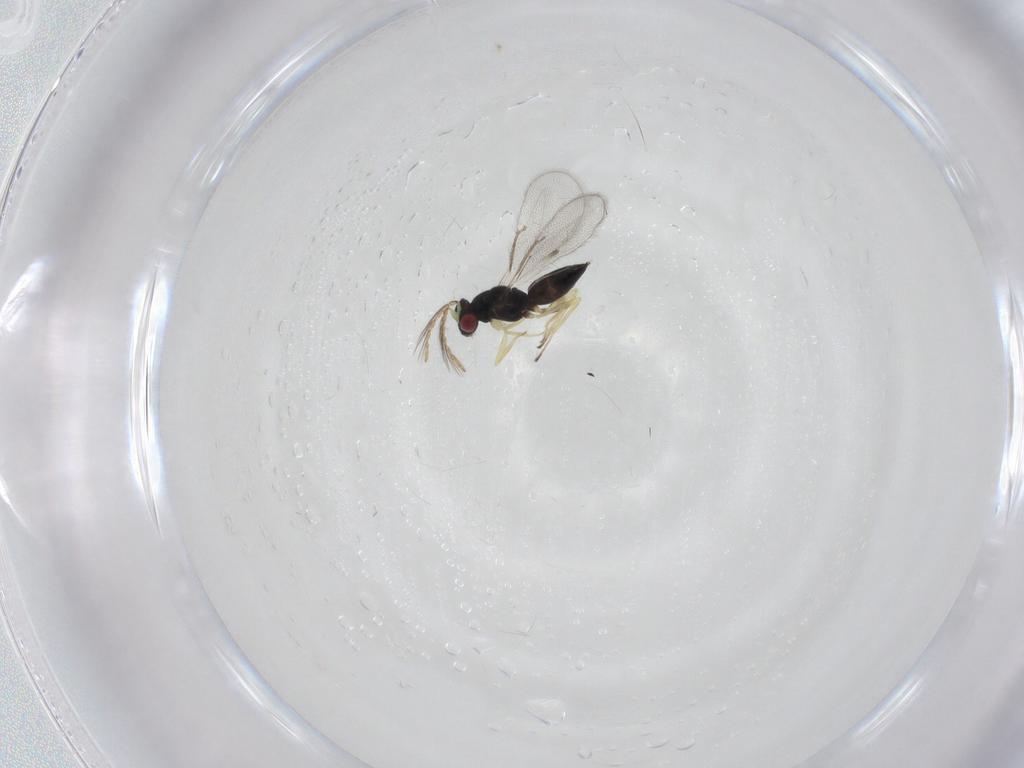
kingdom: Animalia
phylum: Arthropoda
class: Insecta
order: Hymenoptera
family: Eulophidae
